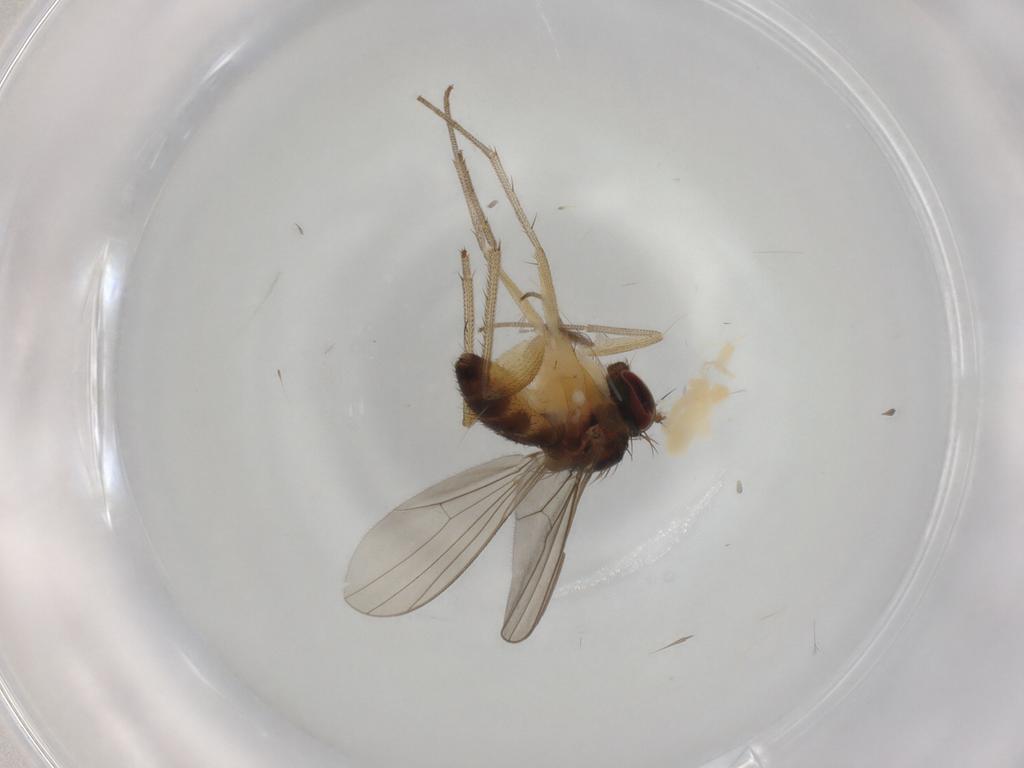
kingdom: Animalia
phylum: Arthropoda
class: Insecta
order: Diptera
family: Dolichopodidae
